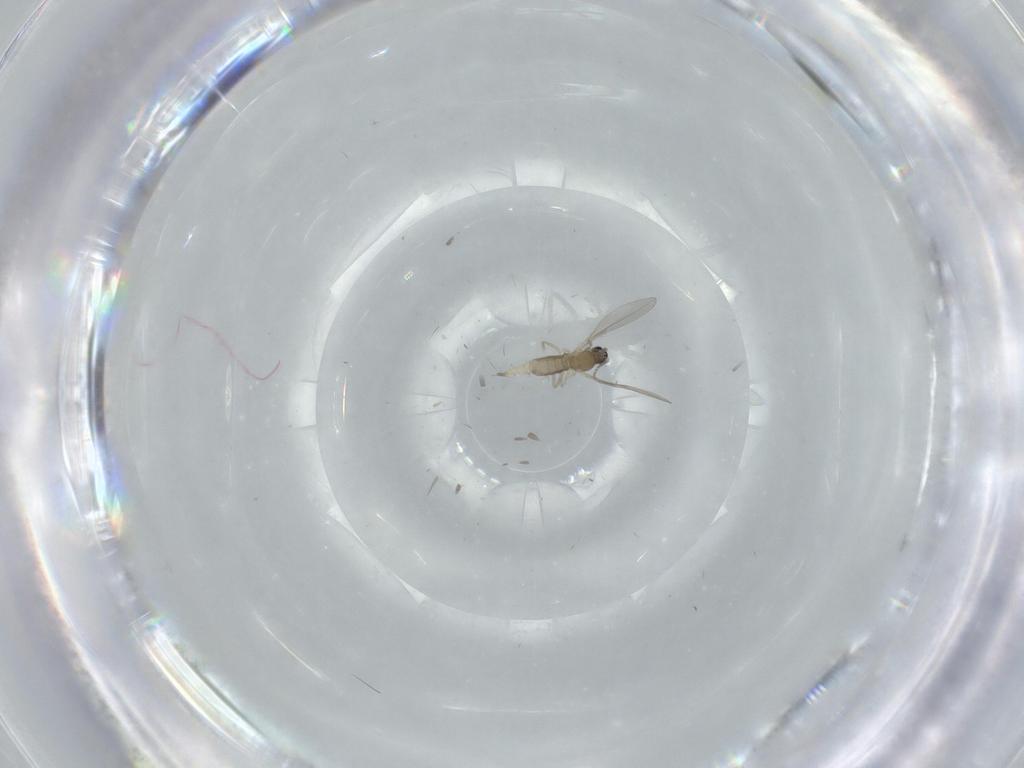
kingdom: Animalia
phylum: Arthropoda
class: Insecta
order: Diptera
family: Cecidomyiidae
